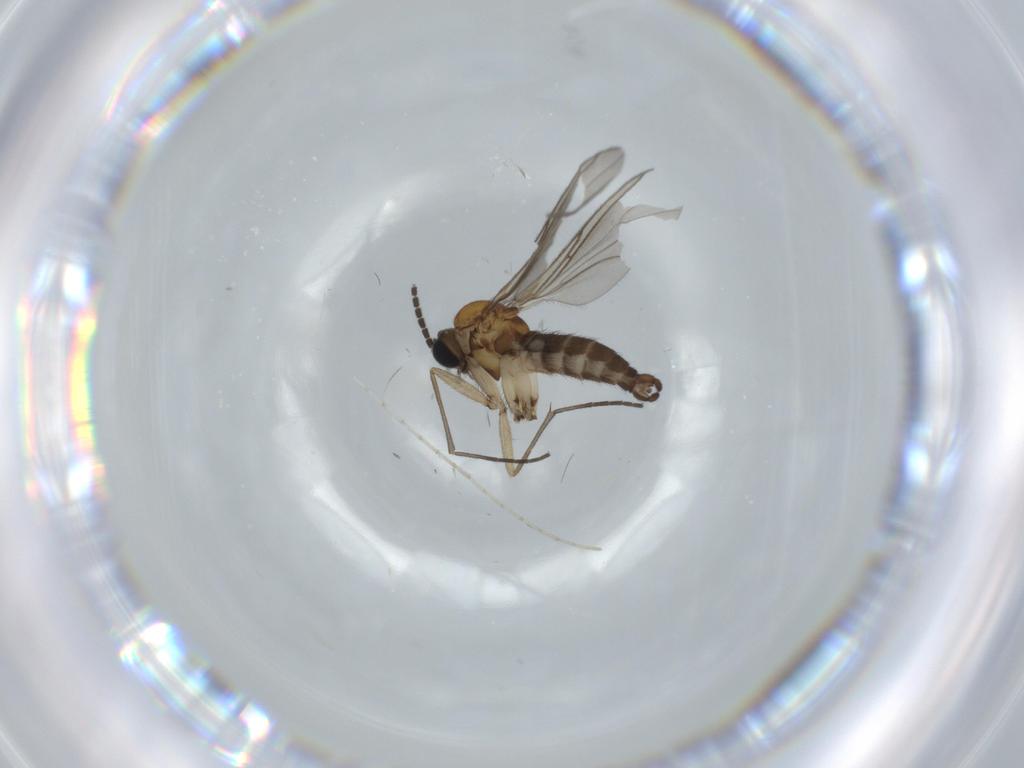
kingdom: Animalia
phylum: Arthropoda
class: Insecta
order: Diptera
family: Sciaridae
